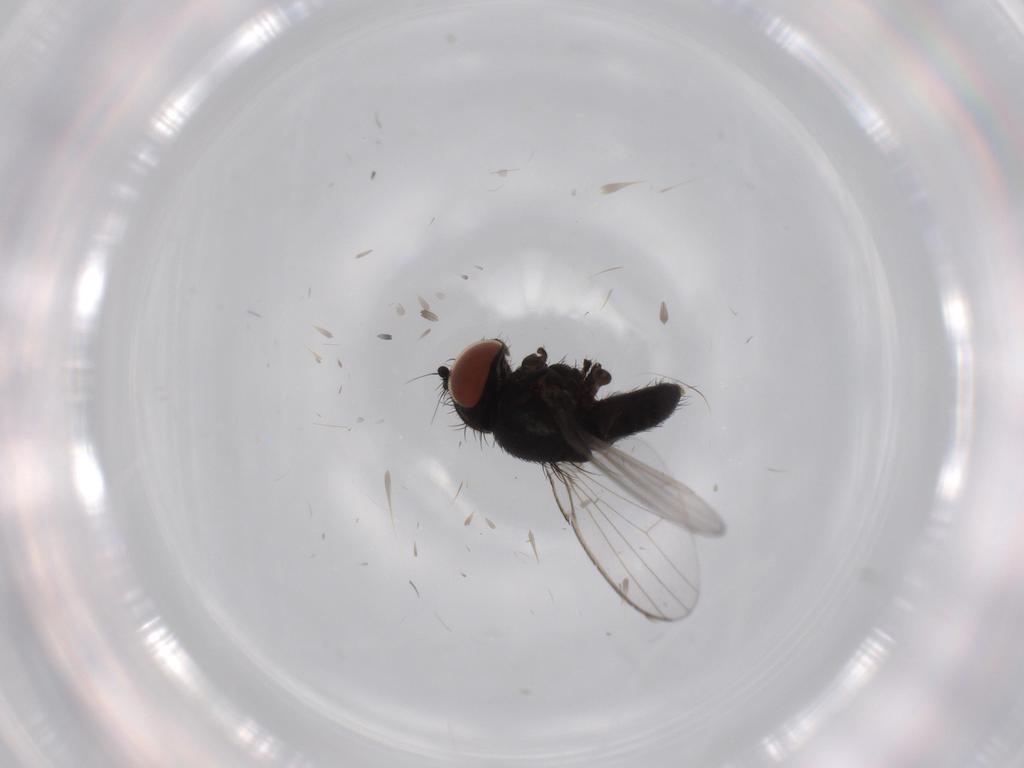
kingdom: Animalia
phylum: Arthropoda
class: Insecta
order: Diptera
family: Milichiidae
